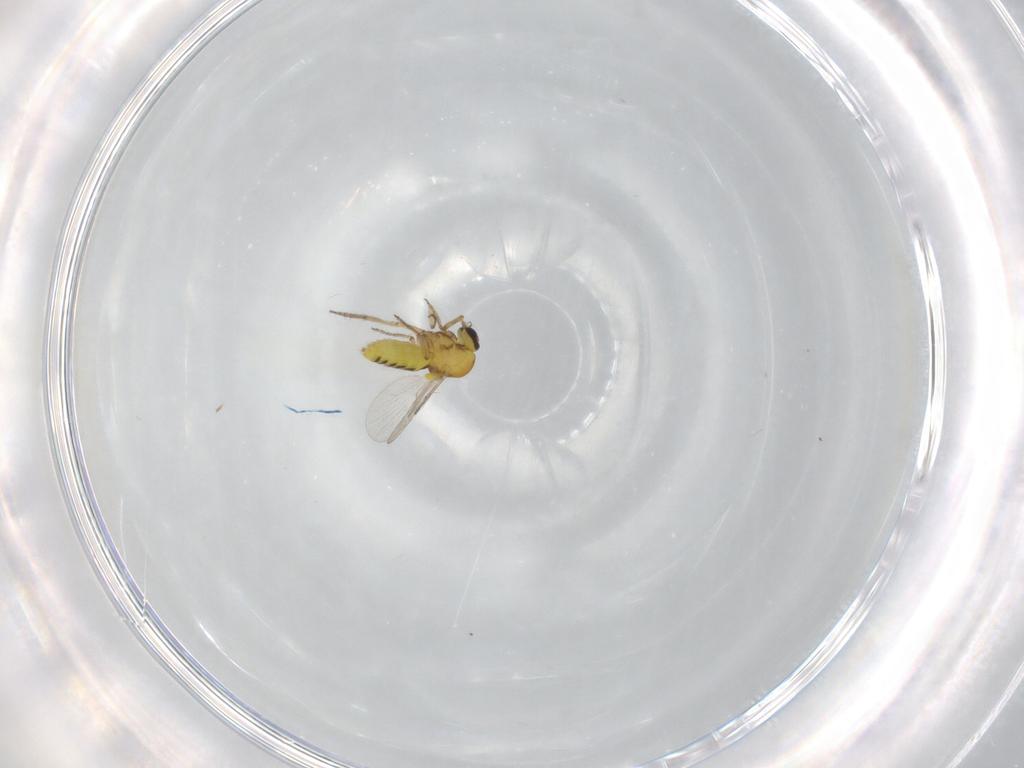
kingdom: Animalia
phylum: Arthropoda
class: Insecta
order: Diptera
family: Ceratopogonidae
